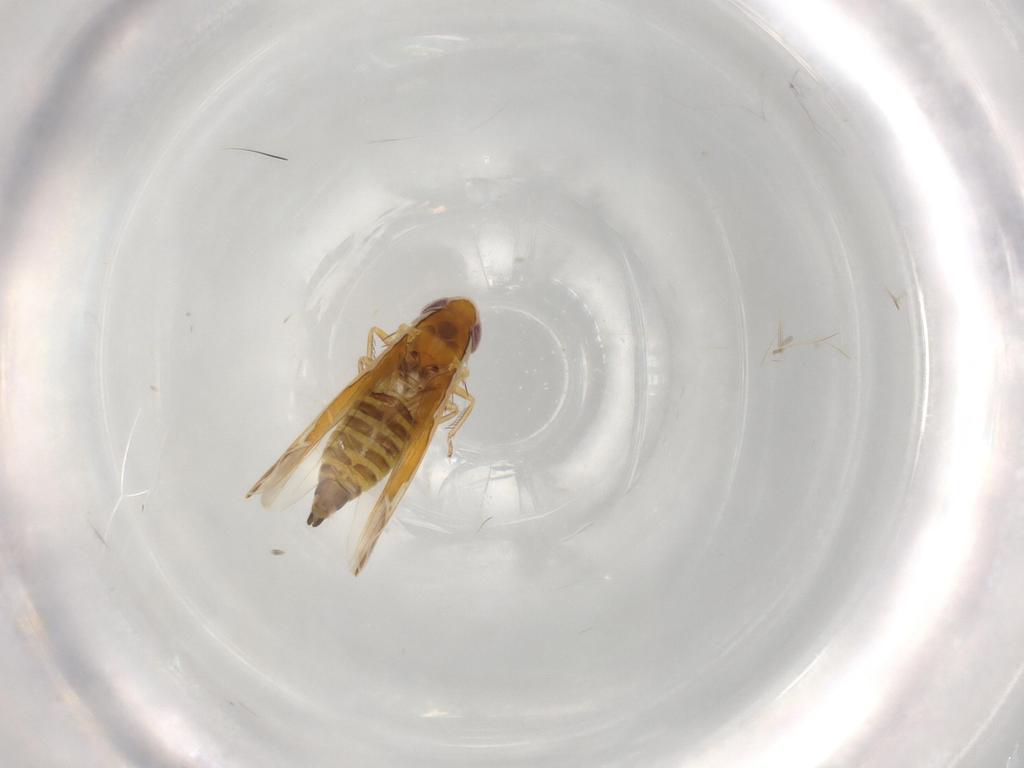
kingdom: Animalia
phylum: Arthropoda
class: Insecta
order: Hemiptera
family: Cicadellidae
